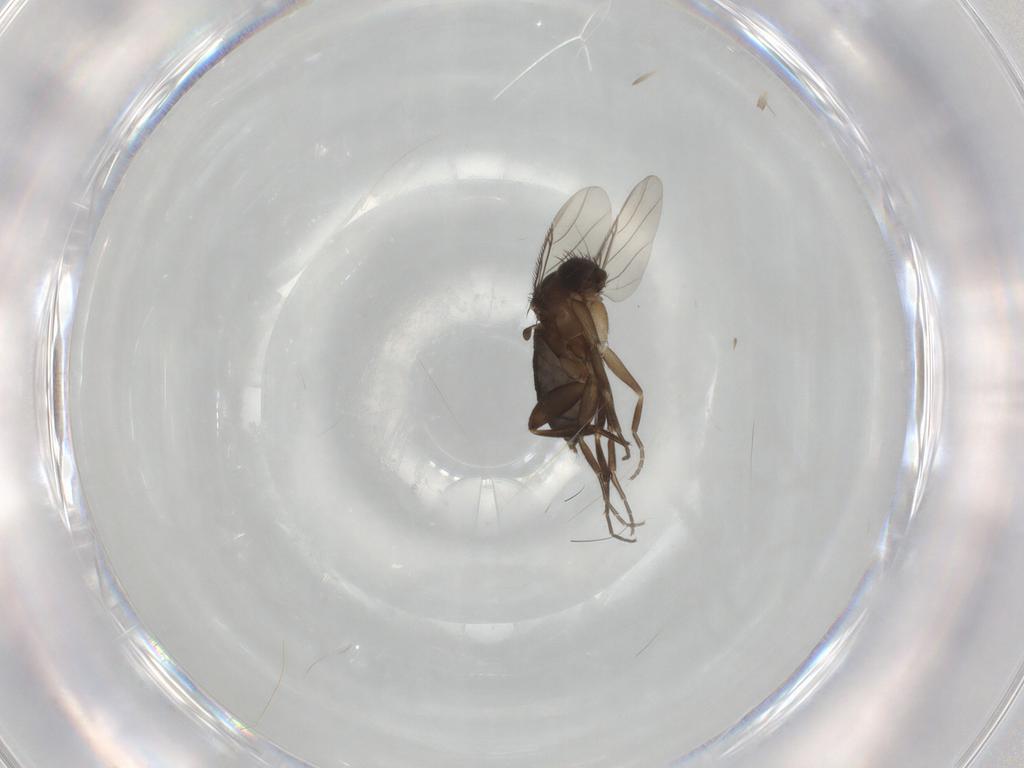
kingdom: Animalia
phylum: Arthropoda
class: Insecta
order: Diptera
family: Phoridae
